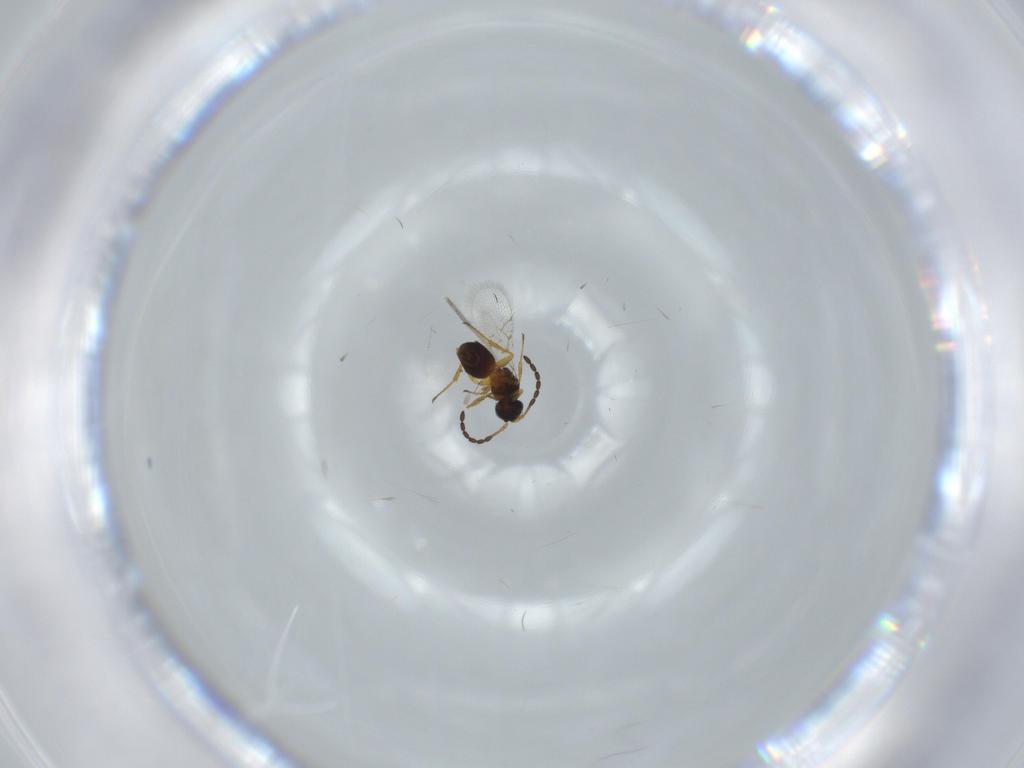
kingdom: Animalia
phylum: Arthropoda
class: Insecta
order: Hymenoptera
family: Figitidae
